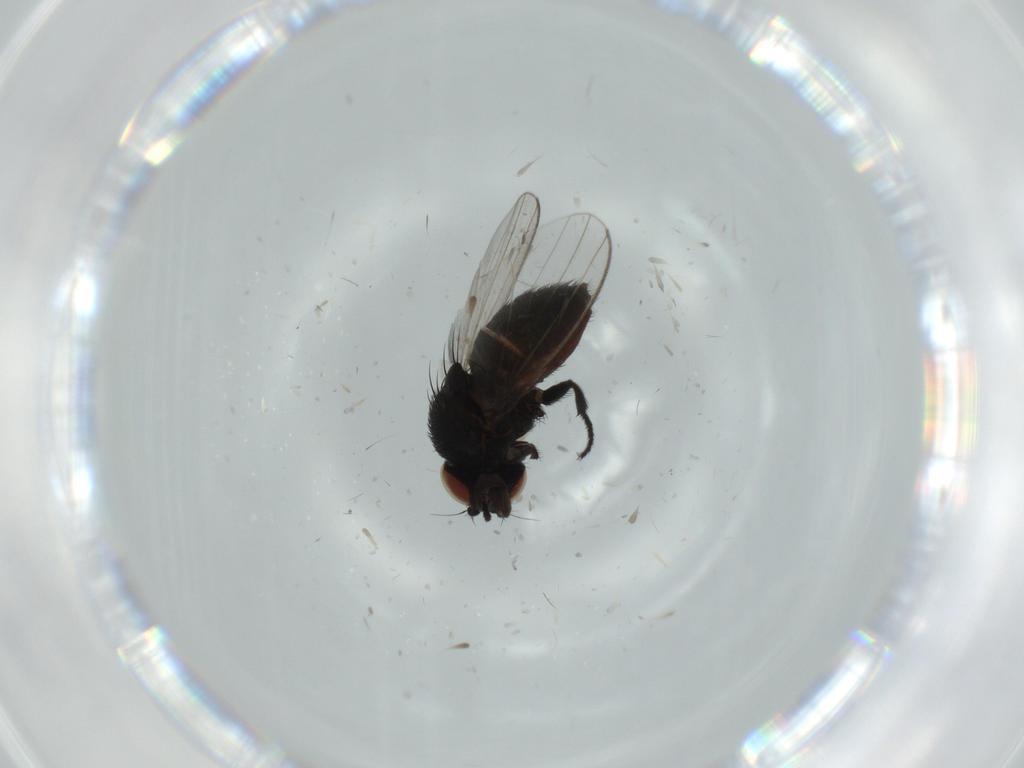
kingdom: Animalia
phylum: Arthropoda
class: Insecta
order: Diptera
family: Milichiidae
